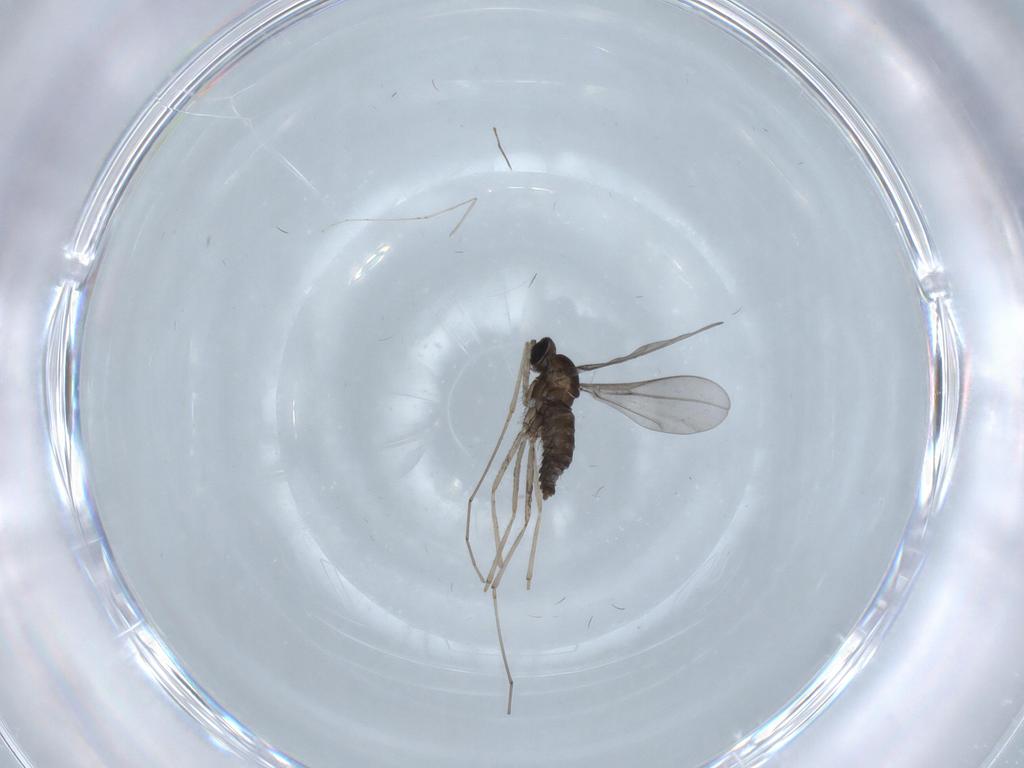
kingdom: Animalia
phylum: Arthropoda
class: Insecta
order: Diptera
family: Cecidomyiidae
